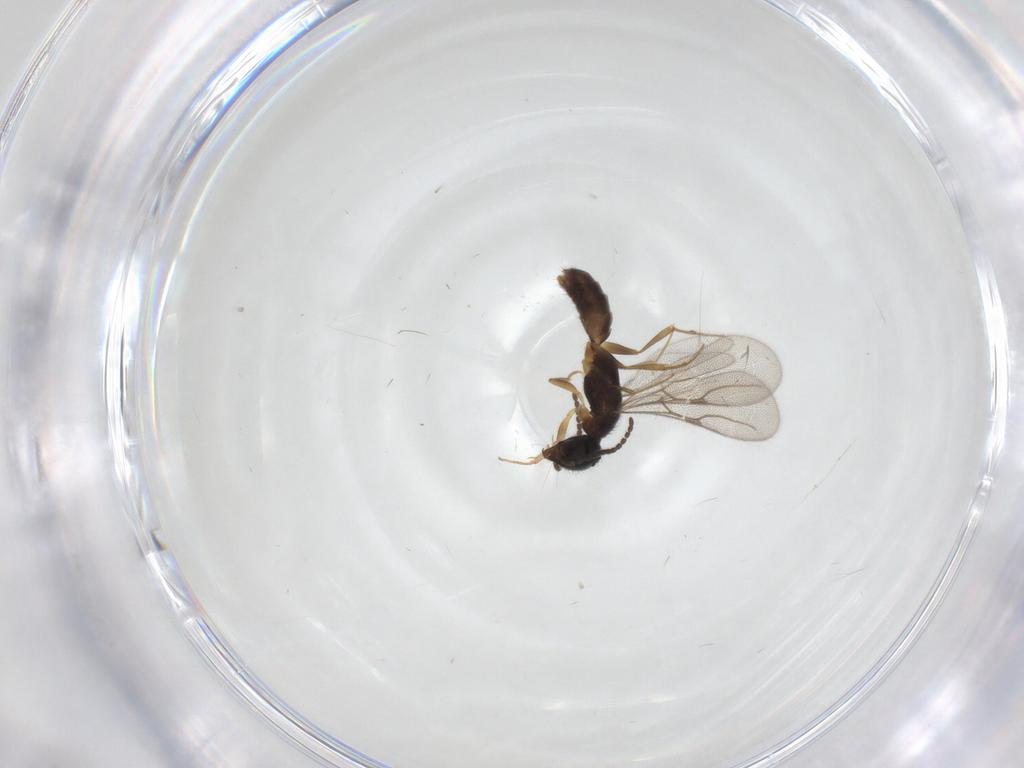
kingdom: Animalia
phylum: Arthropoda
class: Insecta
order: Hymenoptera
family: Bethylidae
